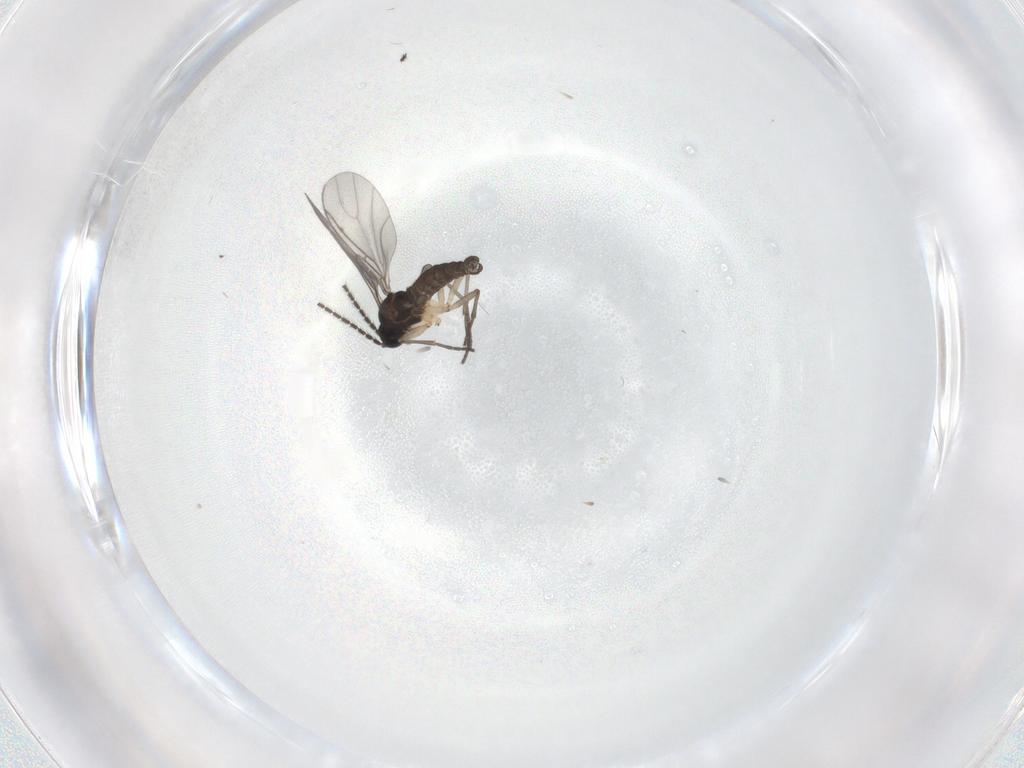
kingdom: Animalia
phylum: Arthropoda
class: Insecta
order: Diptera
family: Sciaridae
